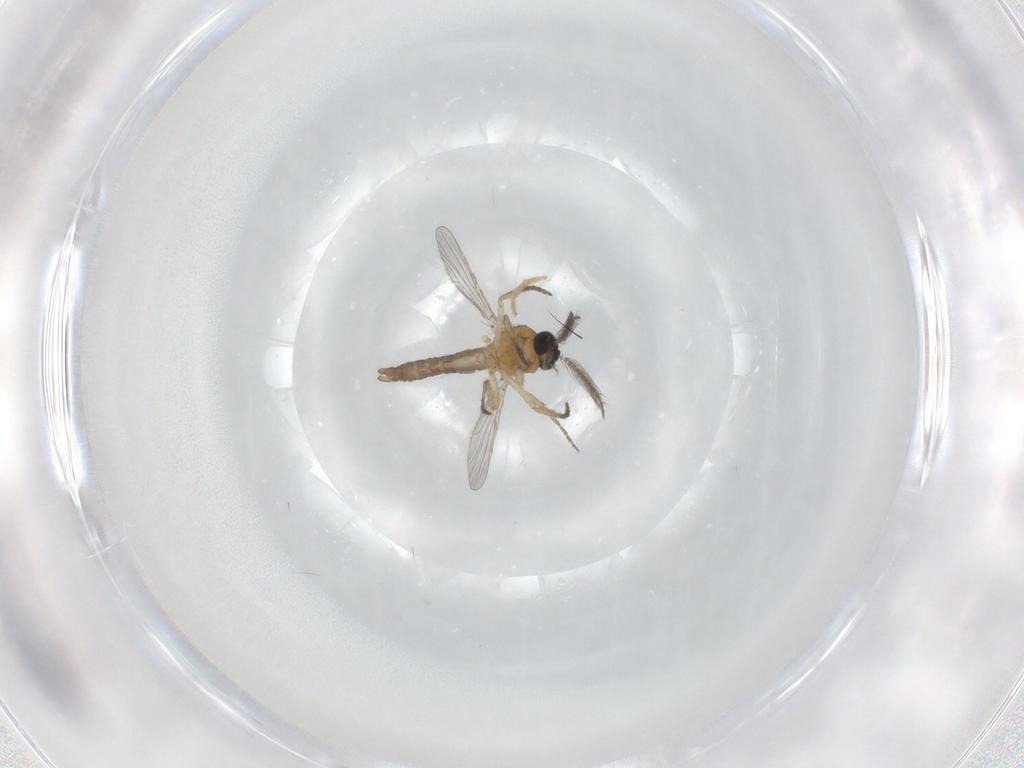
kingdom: Animalia
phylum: Arthropoda
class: Insecta
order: Diptera
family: Ceratopogonidae
